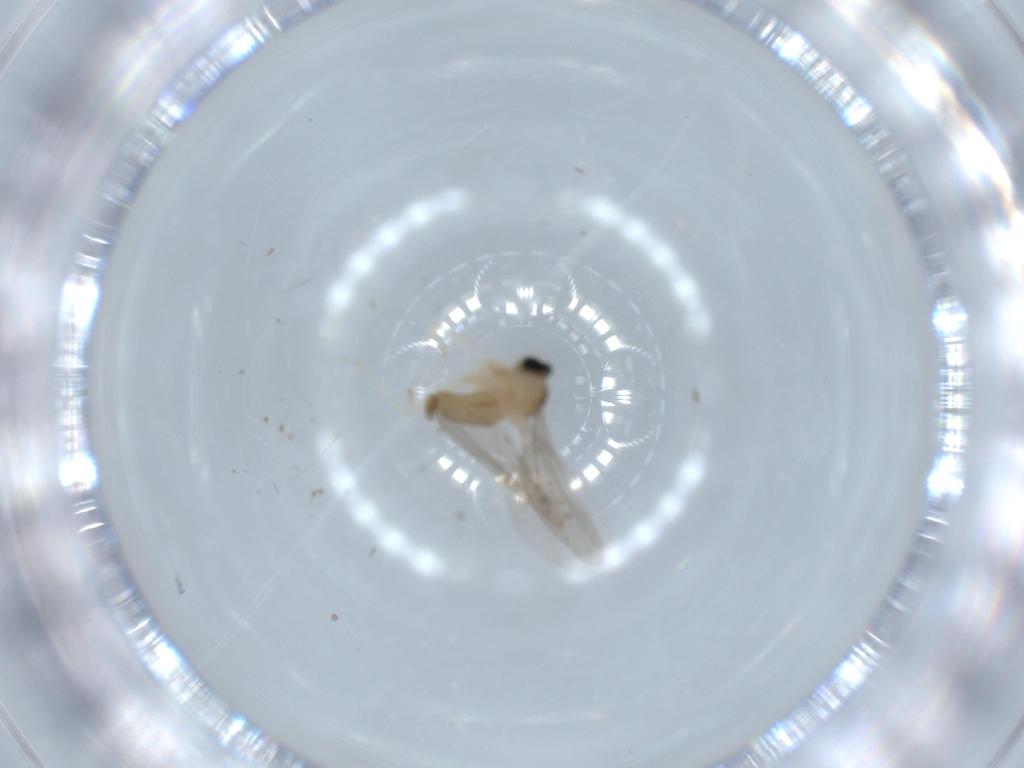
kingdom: Animalia
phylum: Arthropoda
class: Insecta
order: Diptera
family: Cecidomyiidae
